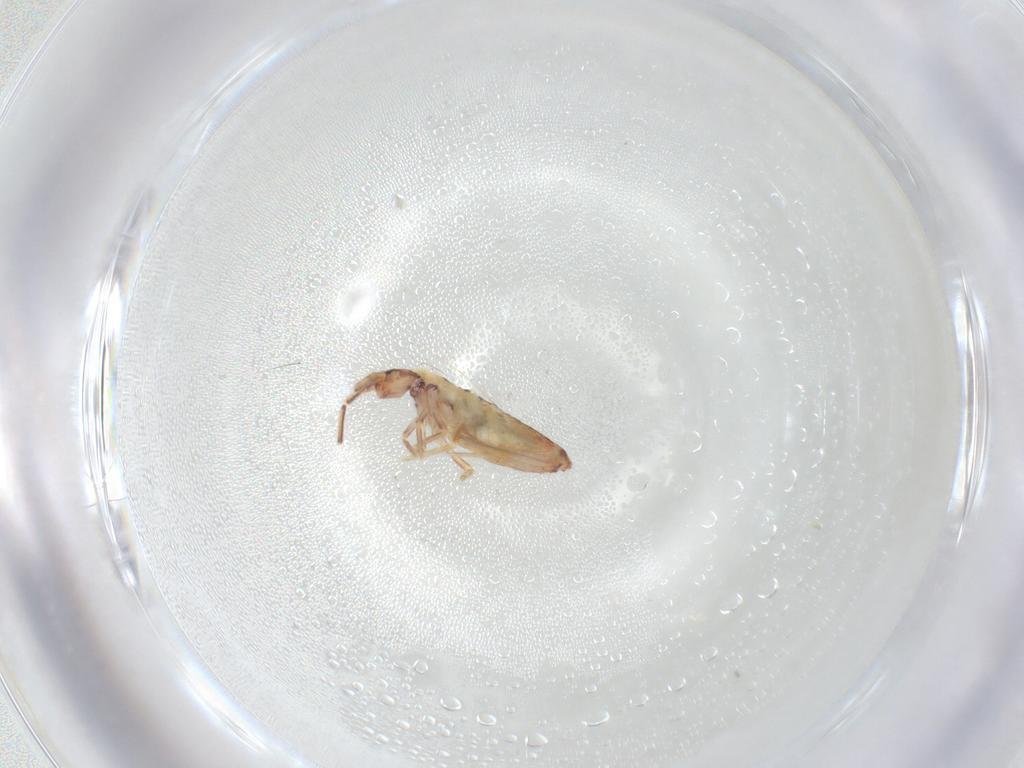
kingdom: Animalia
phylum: Arthropoda
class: Collembola
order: Entomobryomorpha
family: Entomobryidae
